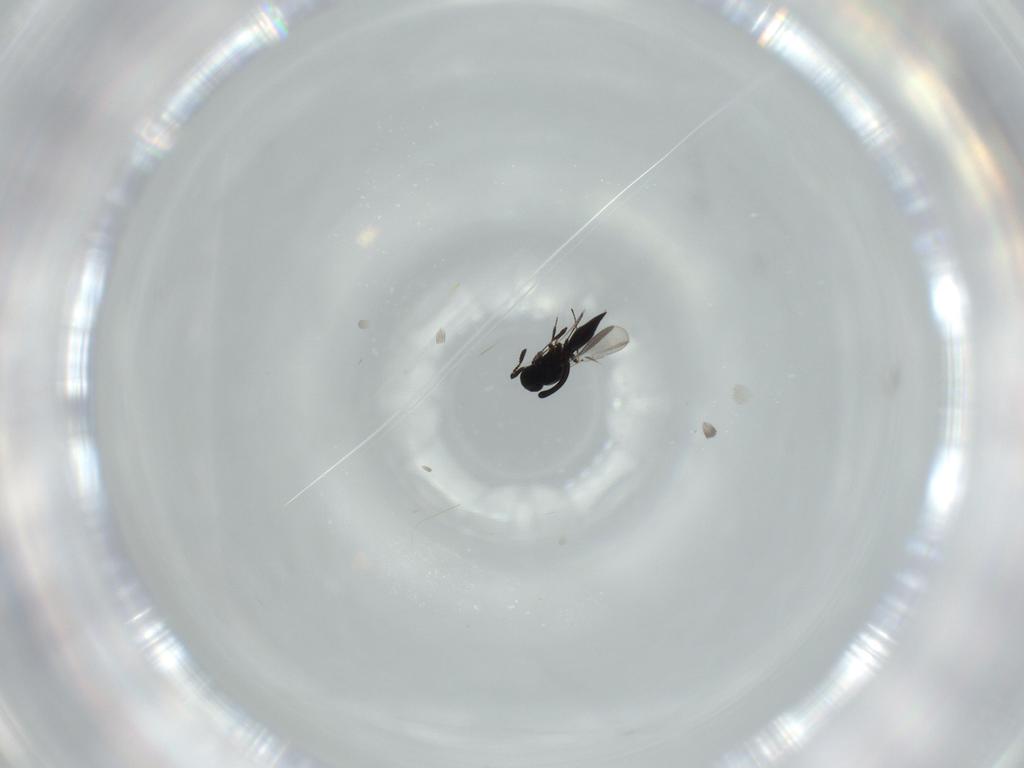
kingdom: Animalia
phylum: Arthropoda
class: Insecta
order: Hymenoptera
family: Platygastridae
